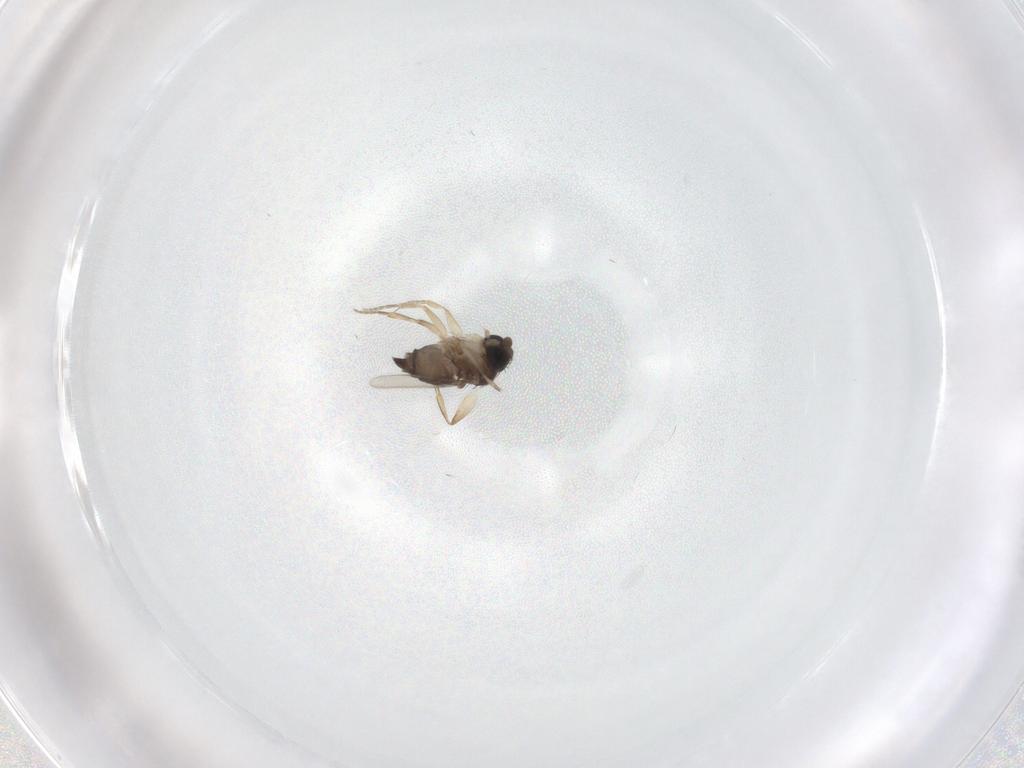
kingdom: Animalia
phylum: Arthropoda
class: Insecta
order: Diptera
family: Phoridae
